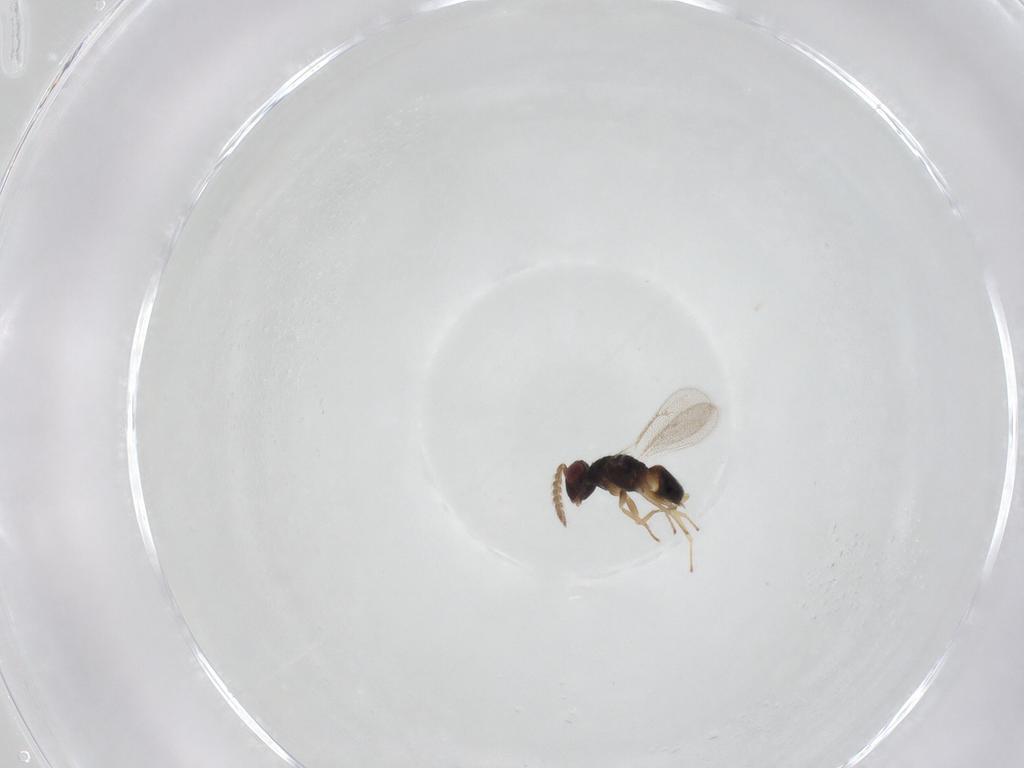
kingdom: Animalia
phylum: Arthropoda
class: Insecta
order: Hymenoptera
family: Eulophidae
